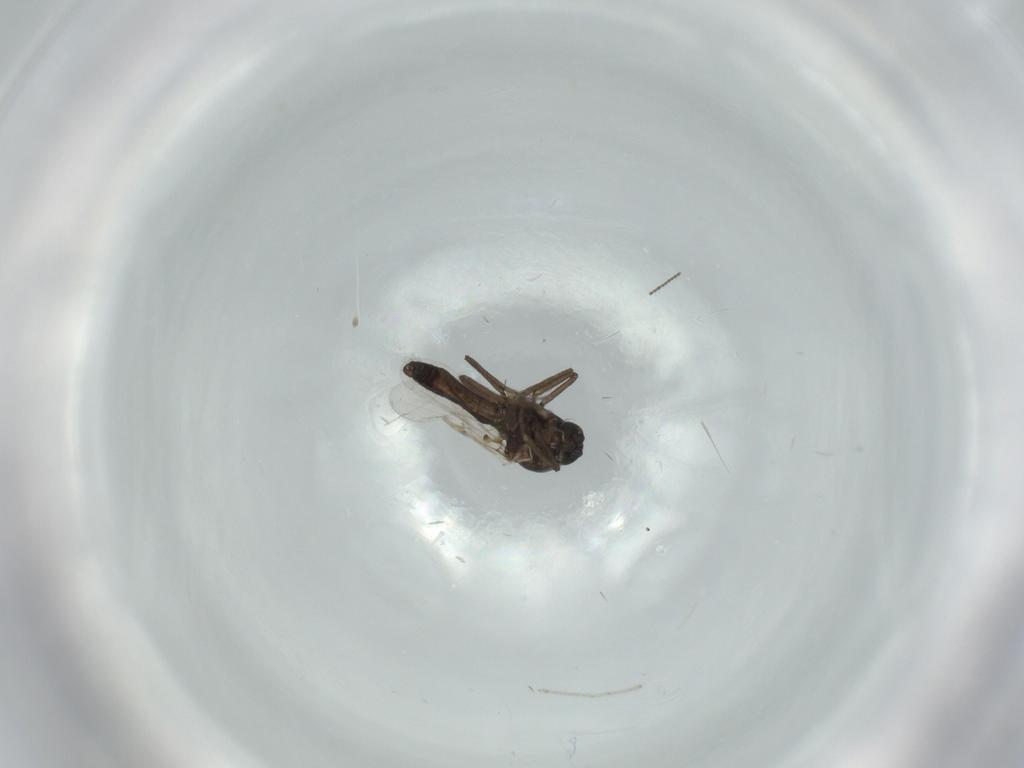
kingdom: Animalia
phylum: Arthropoda
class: Insecta
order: Diptera
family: Ceratopogonidae
